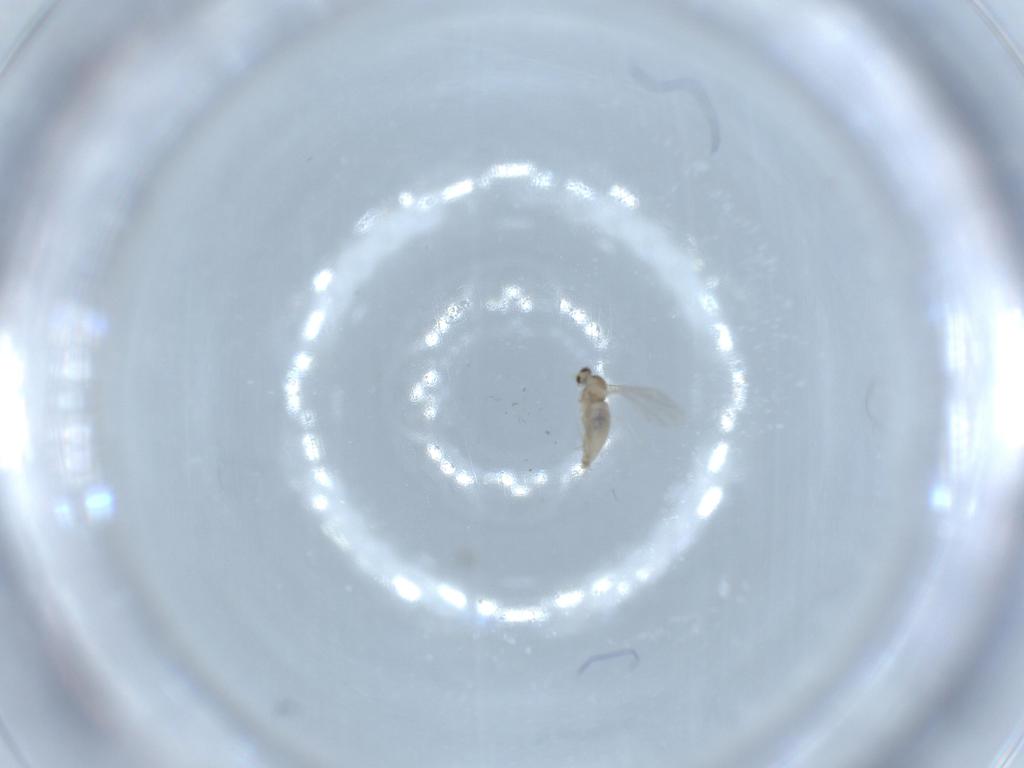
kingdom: Animalia
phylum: Arthropoda
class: Insecta
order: Diptera
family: Cecidomyiidae
